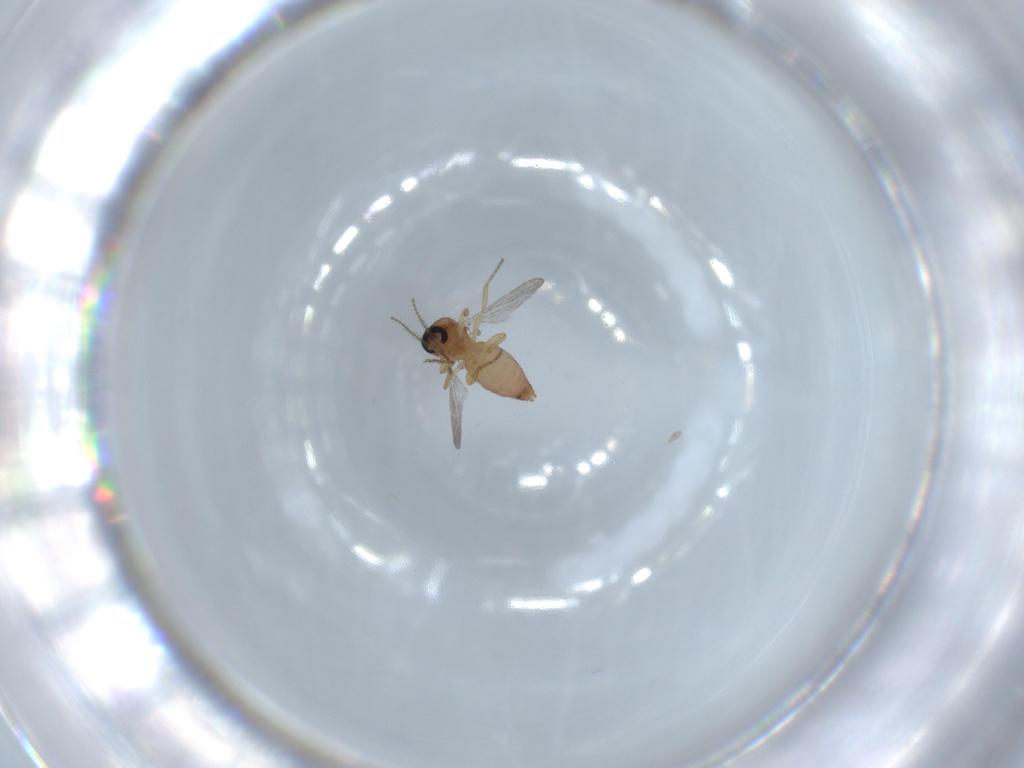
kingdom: Animalia
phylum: Arthropoda
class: Insecta
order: Diptera
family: Ceratopogonidae
